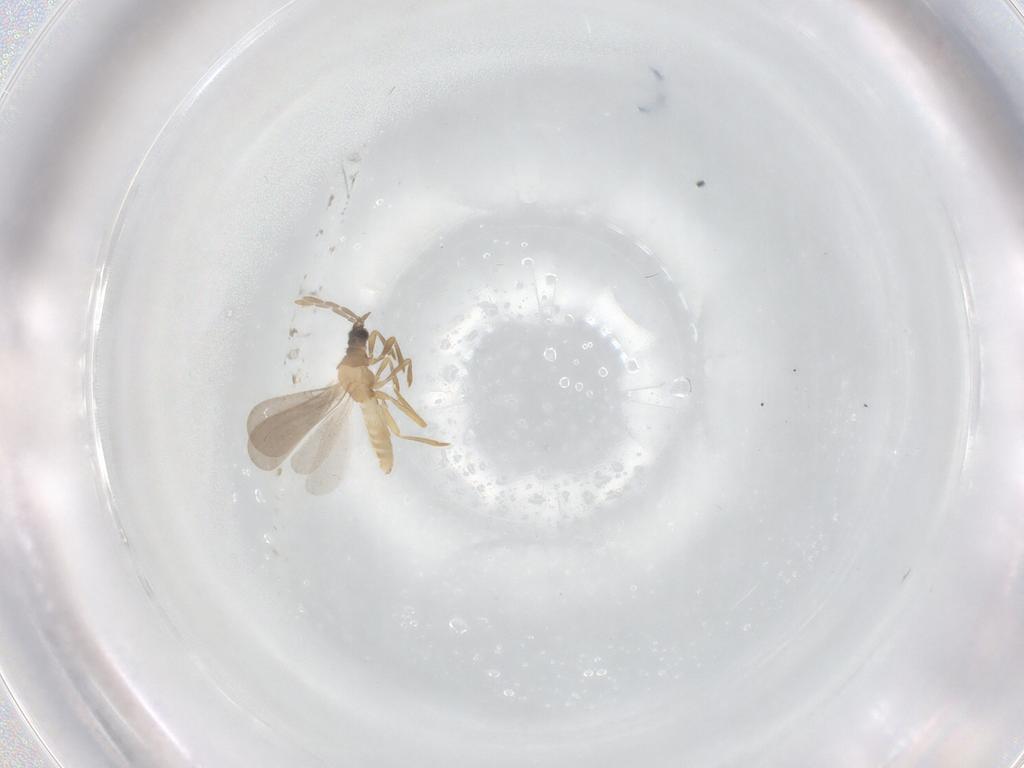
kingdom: Animalia
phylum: Arthropoda
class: Insecta
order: Hemiptera
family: Enicocephalidae
